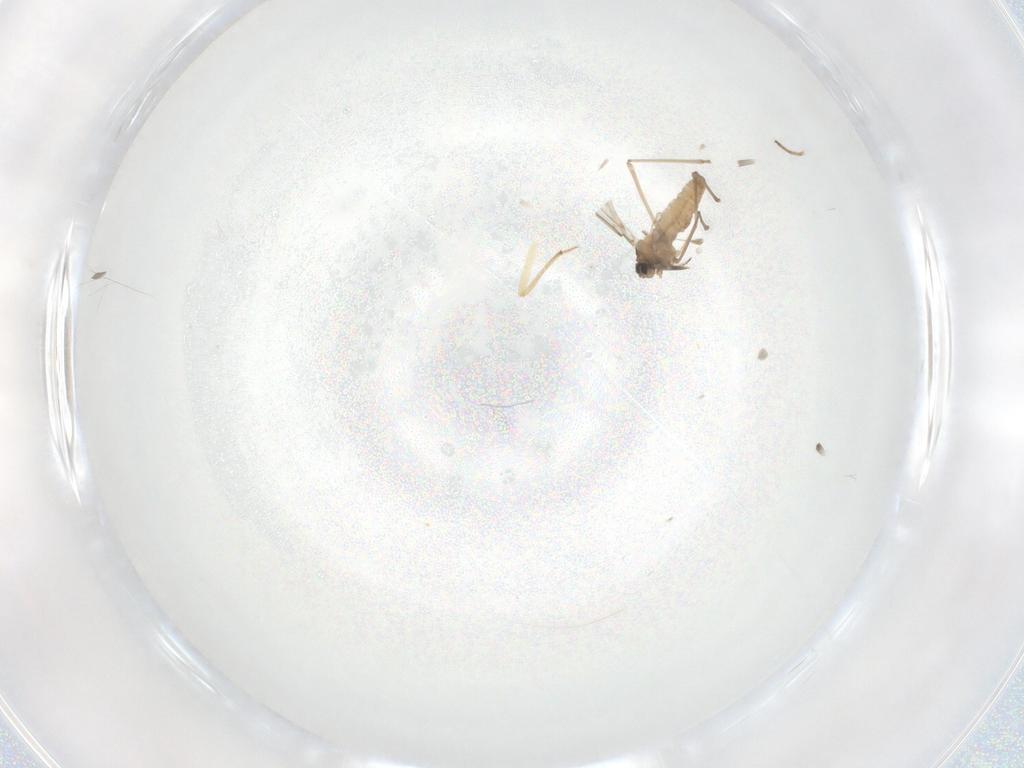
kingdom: Animalia
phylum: Arthropoda
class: Insecta
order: Diptera
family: Cecidomyiidae
